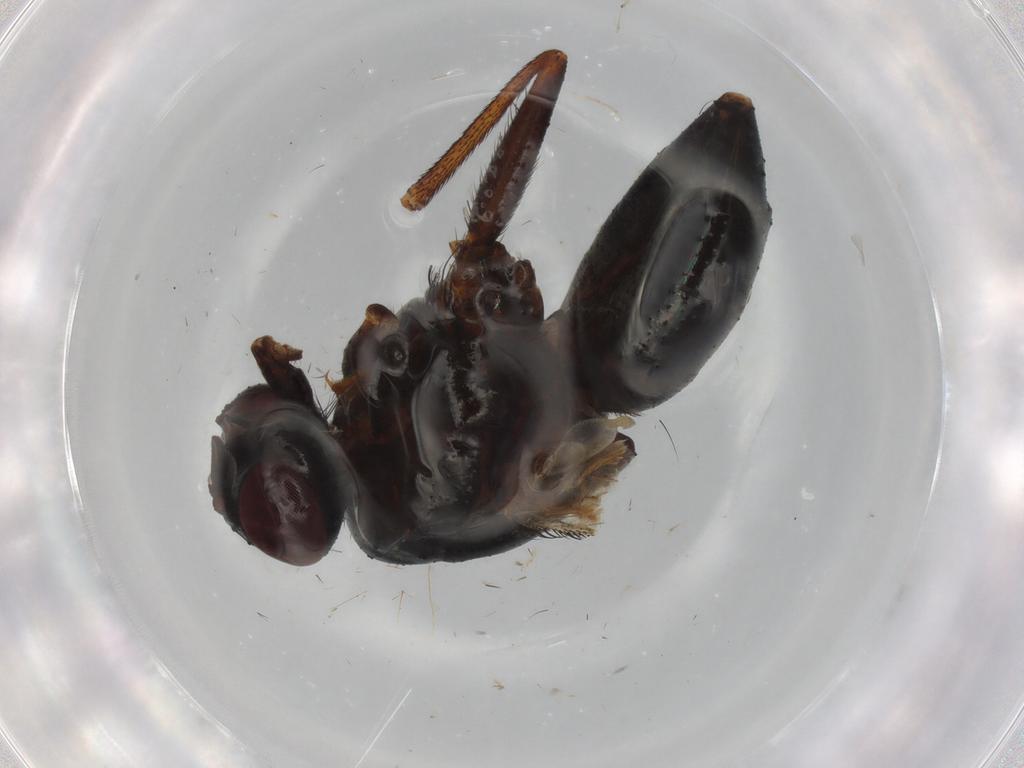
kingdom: Animalia
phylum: Arthropoda
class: Insecta
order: Diptera
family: Muscidae
